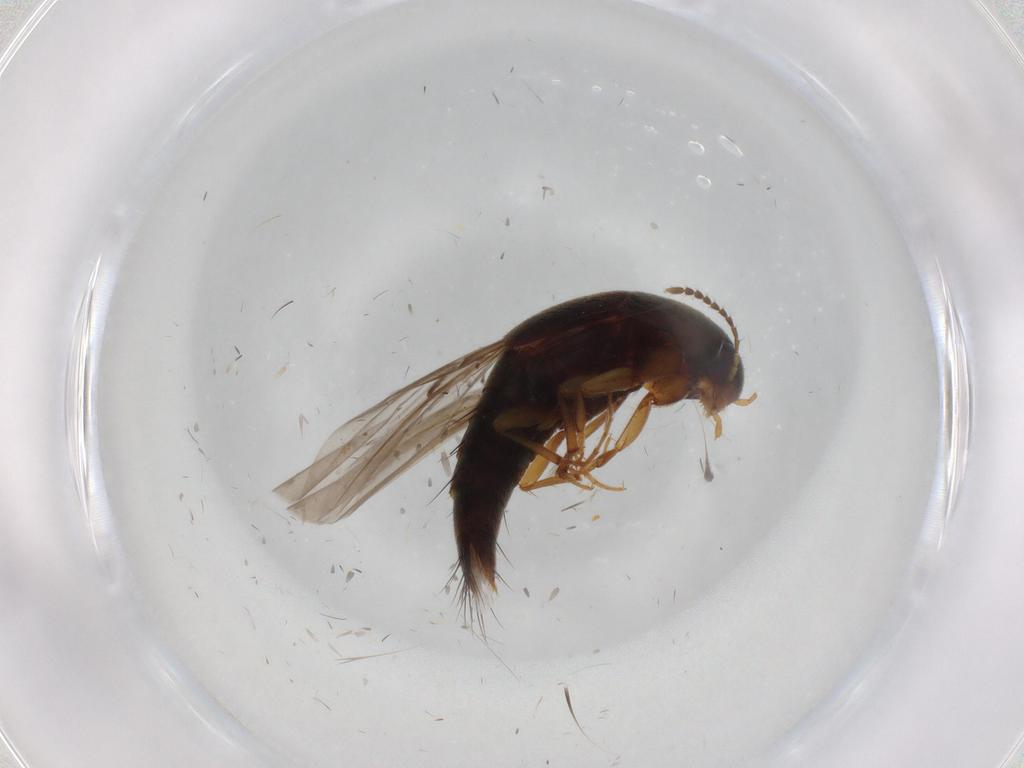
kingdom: Animalia
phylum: Arthropoda
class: Insecta
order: Coleoptera
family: Staphylinidae
